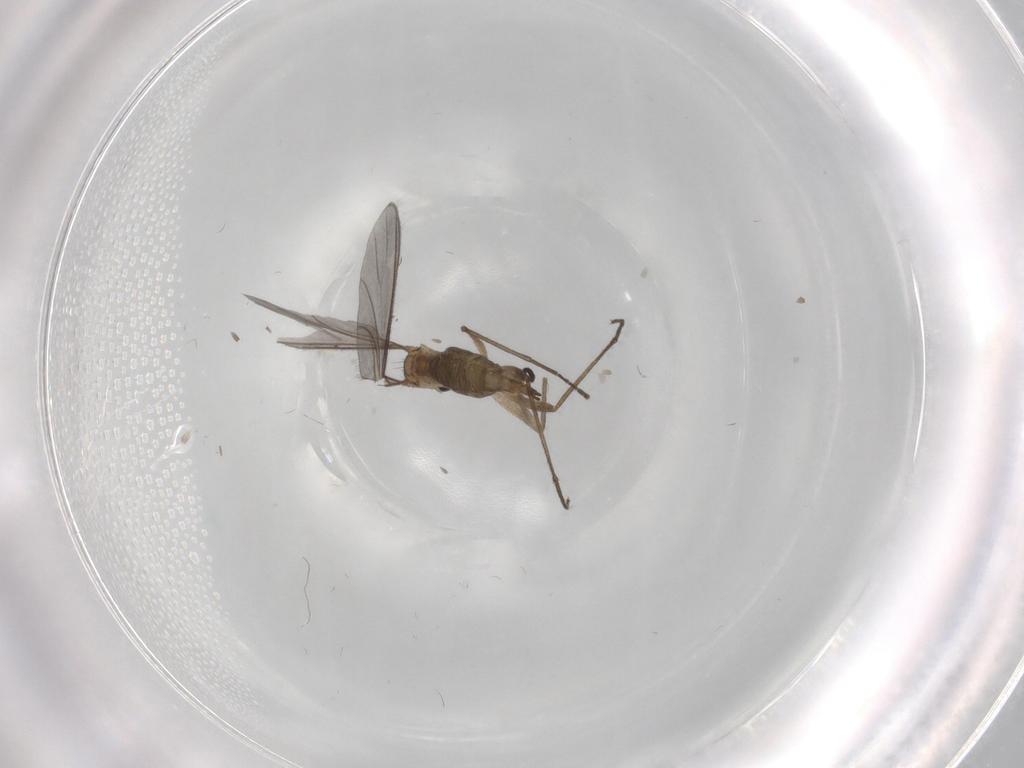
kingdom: Animalia
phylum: Arthropoda
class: Insecta
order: Diptera
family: Sciaridae
